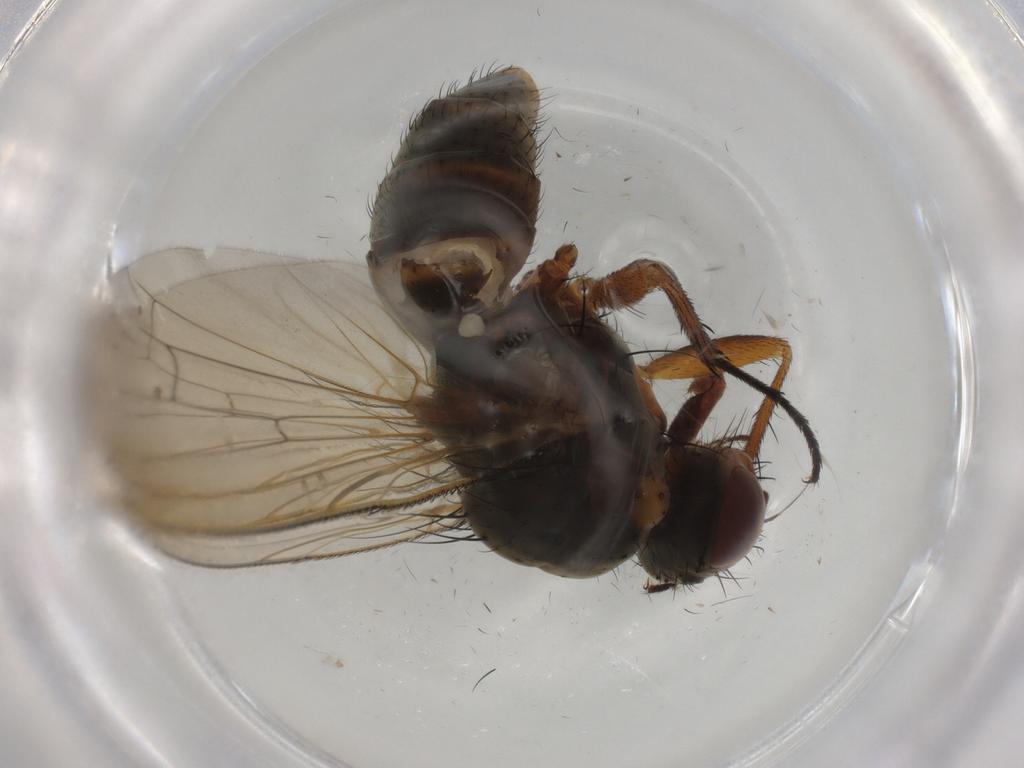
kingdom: Animalia
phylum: Arthropoda
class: Insecta
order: Diptera
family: Anthomyiidae
